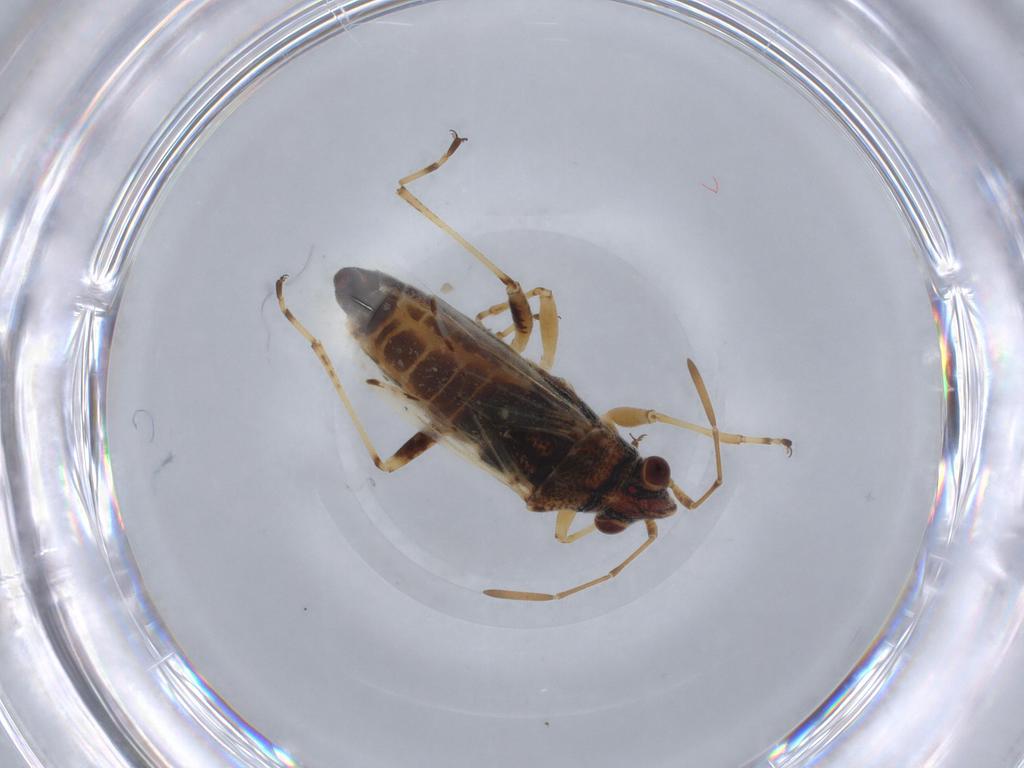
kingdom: Animalia
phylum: Arthropoda
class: Insecta
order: Hemiptera
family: Lygaeidae
